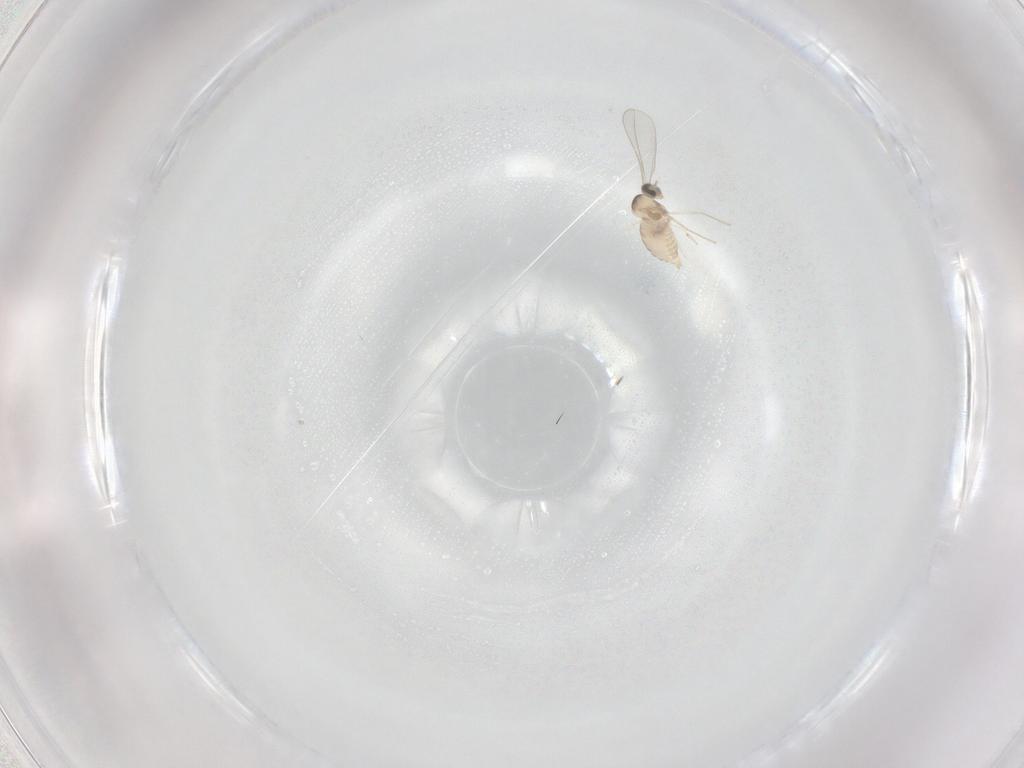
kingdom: Animalia
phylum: Arthropoda
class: Insecta
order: Diptera
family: Cecidomyiidae
